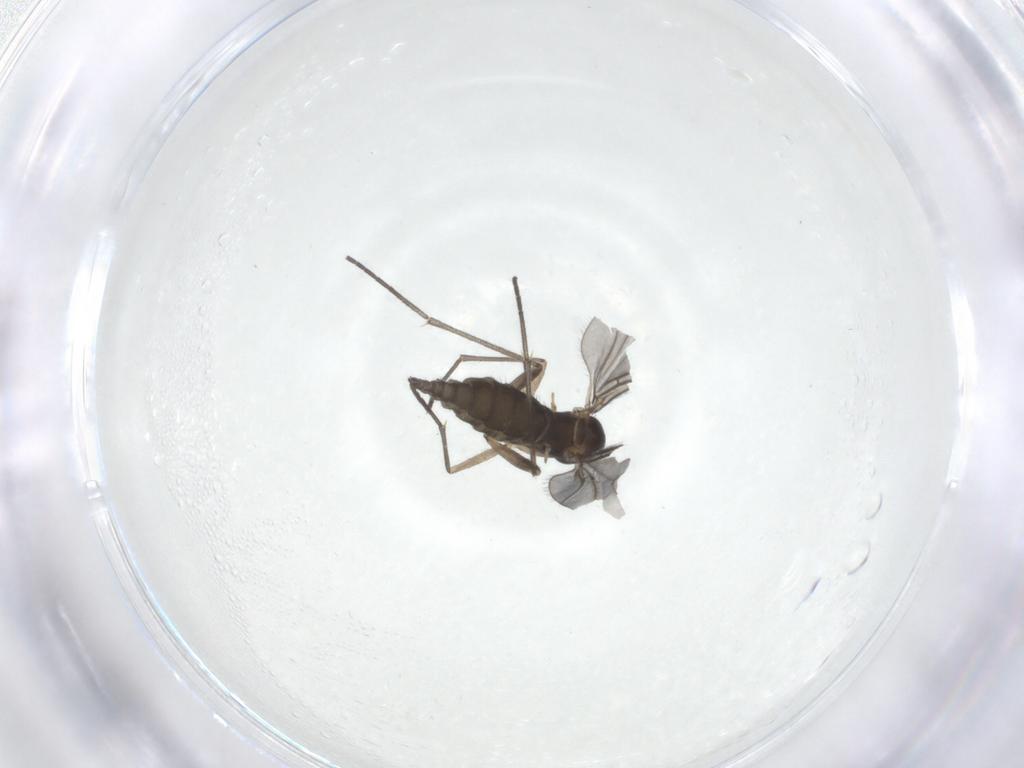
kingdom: Animalia
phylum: Arthropoda
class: Insecta
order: Diptera
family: Sciaridae
